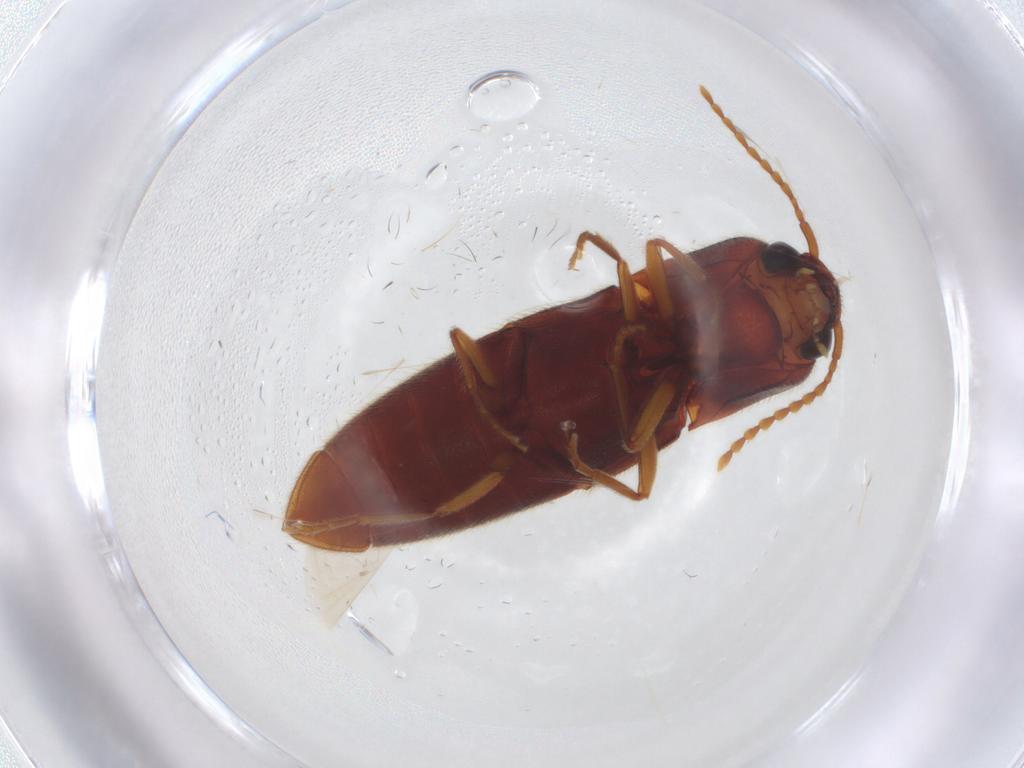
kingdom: Animalia
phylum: Arthropoda
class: Insecta
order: Coleoptera
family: Elateridae
